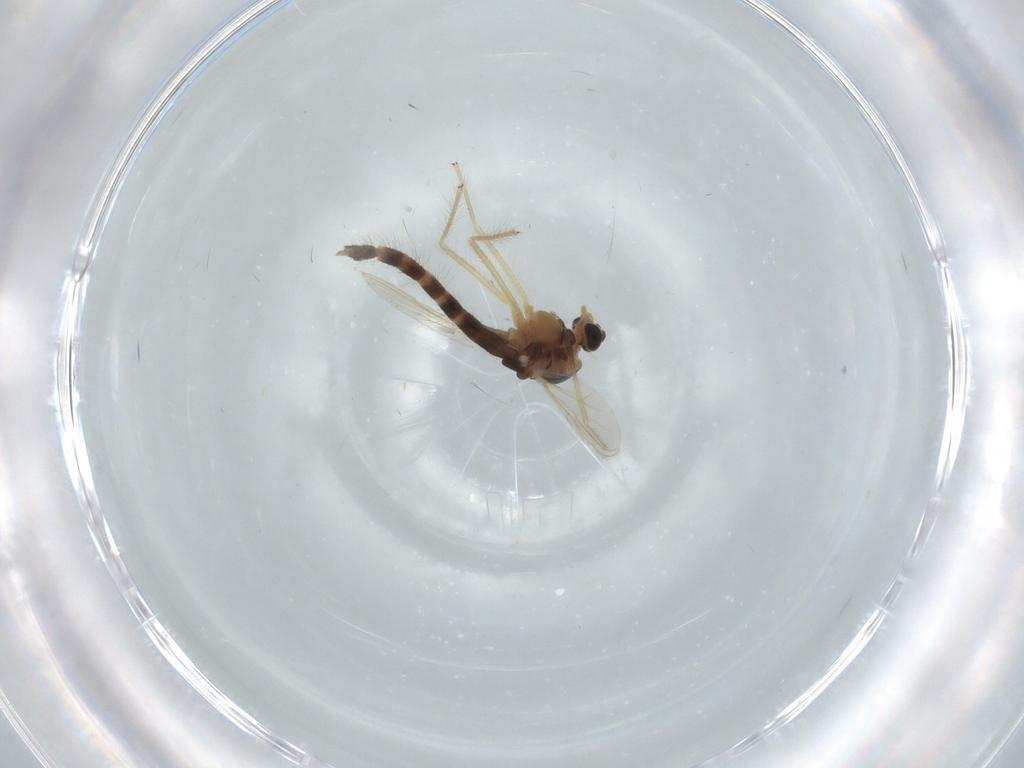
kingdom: Animalia
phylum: Arthropoda
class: Insecta
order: Diptera
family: Chironomidae
